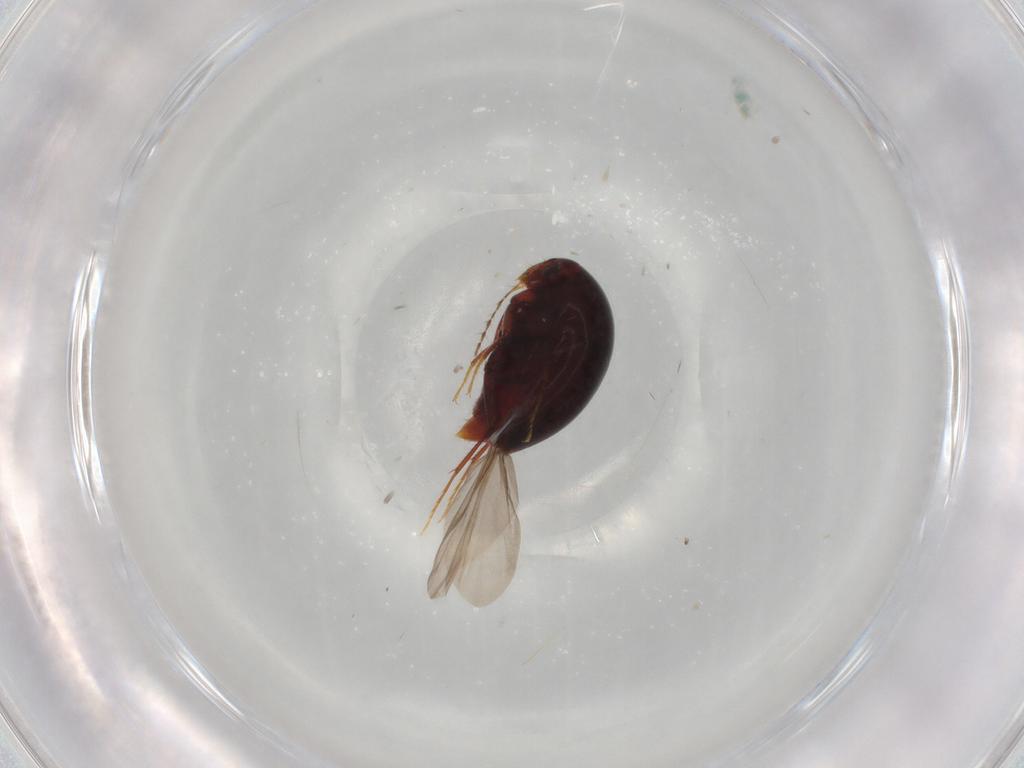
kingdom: Animalia
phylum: Arthropoda
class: Insecta
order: Coleoptera
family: Staphylinidae
